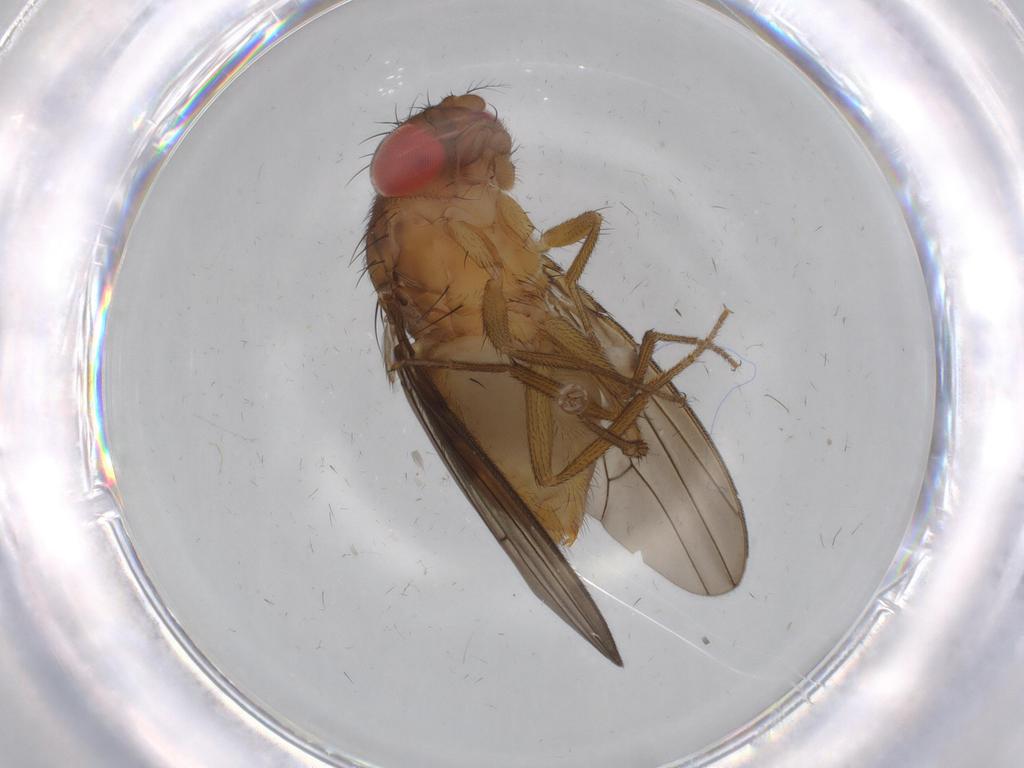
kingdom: Animalia
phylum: Arthropoda
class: Insecta
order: Diptera
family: Drosophilidae
